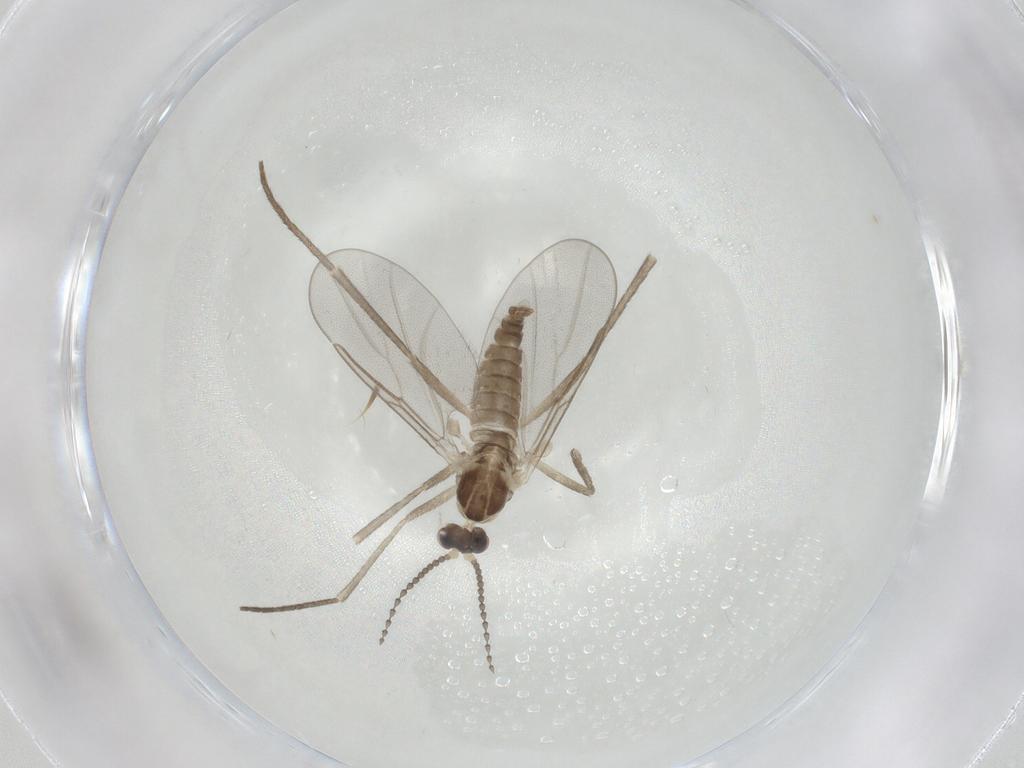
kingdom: Animalia
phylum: Arthropoda
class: Insecta
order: Diptera
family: Cecidomyiidae
